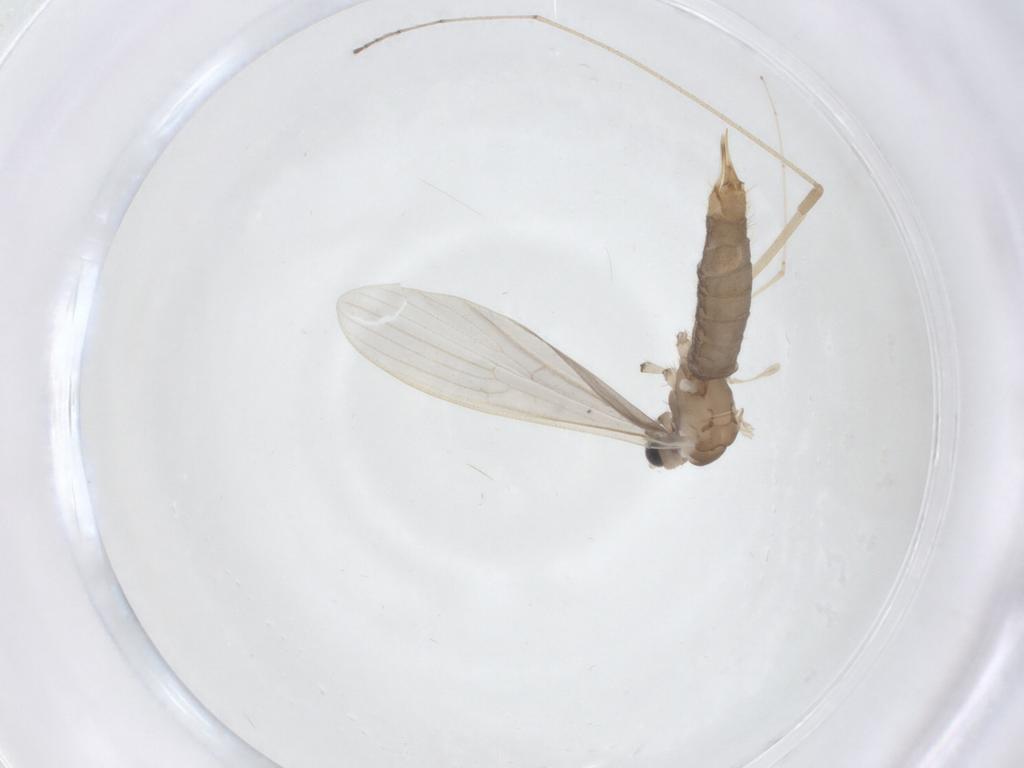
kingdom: Animalia
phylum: Arthropoda
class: Insecta
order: Diptera
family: Limoniidae
